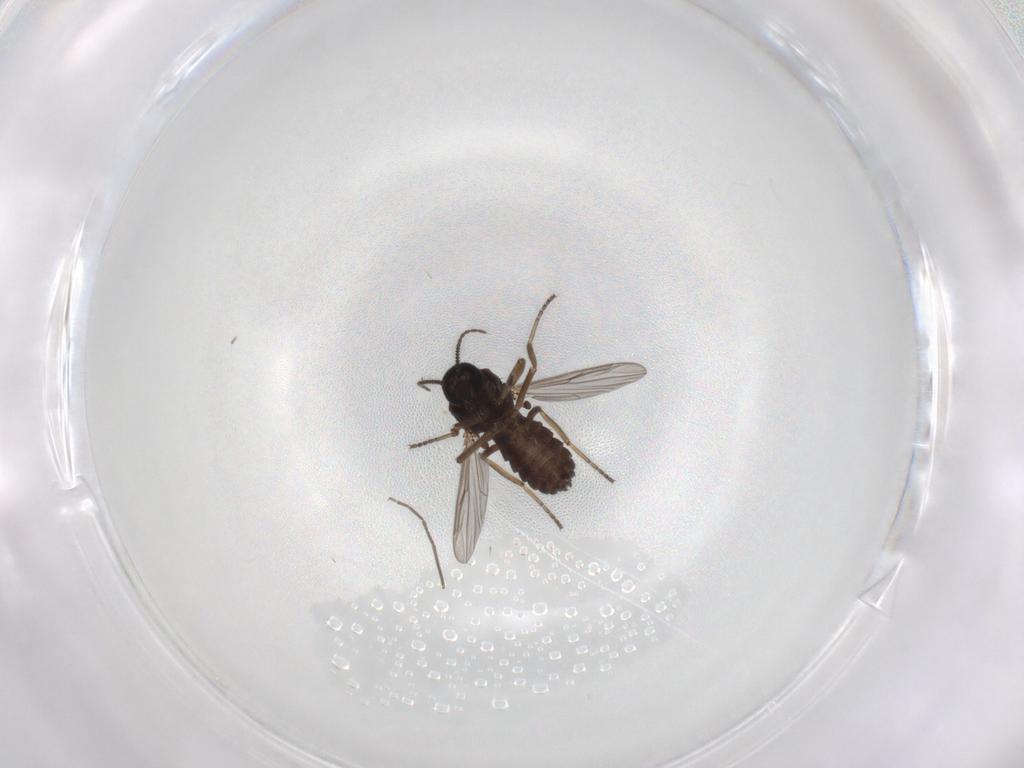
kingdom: Animalia
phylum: Arthropoda
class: Insecta
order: Diptera
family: Ceratopogonidae
